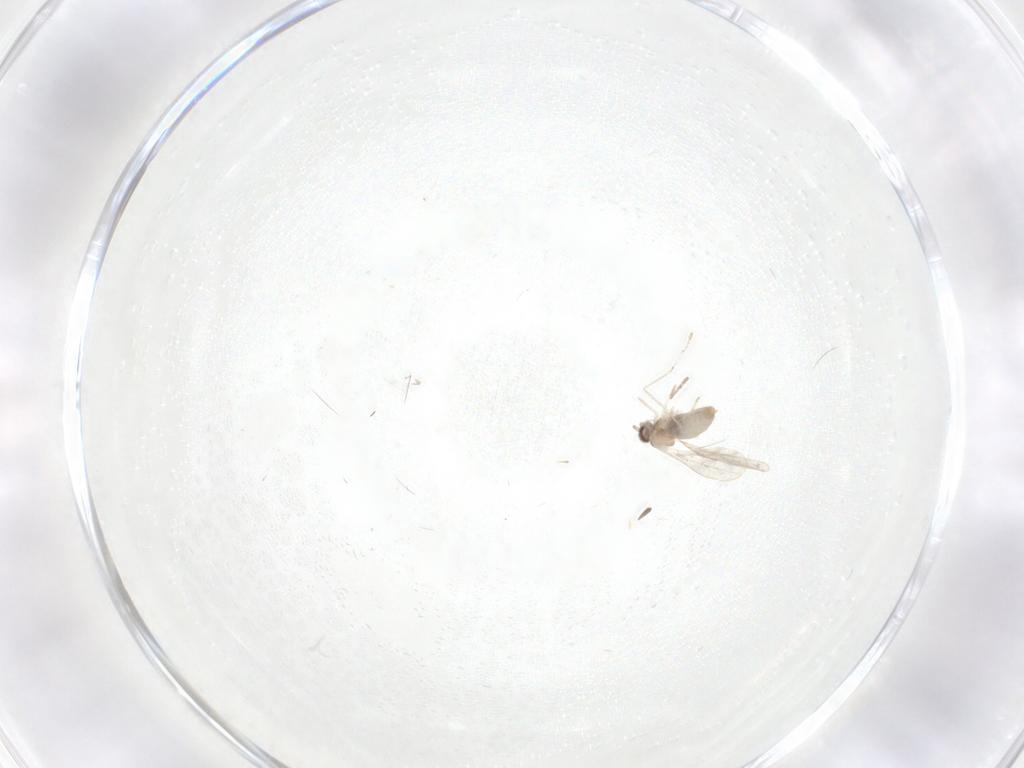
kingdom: Animalia
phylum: Arthropoda
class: Insecta
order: Diptera
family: Cecidomyiidae
